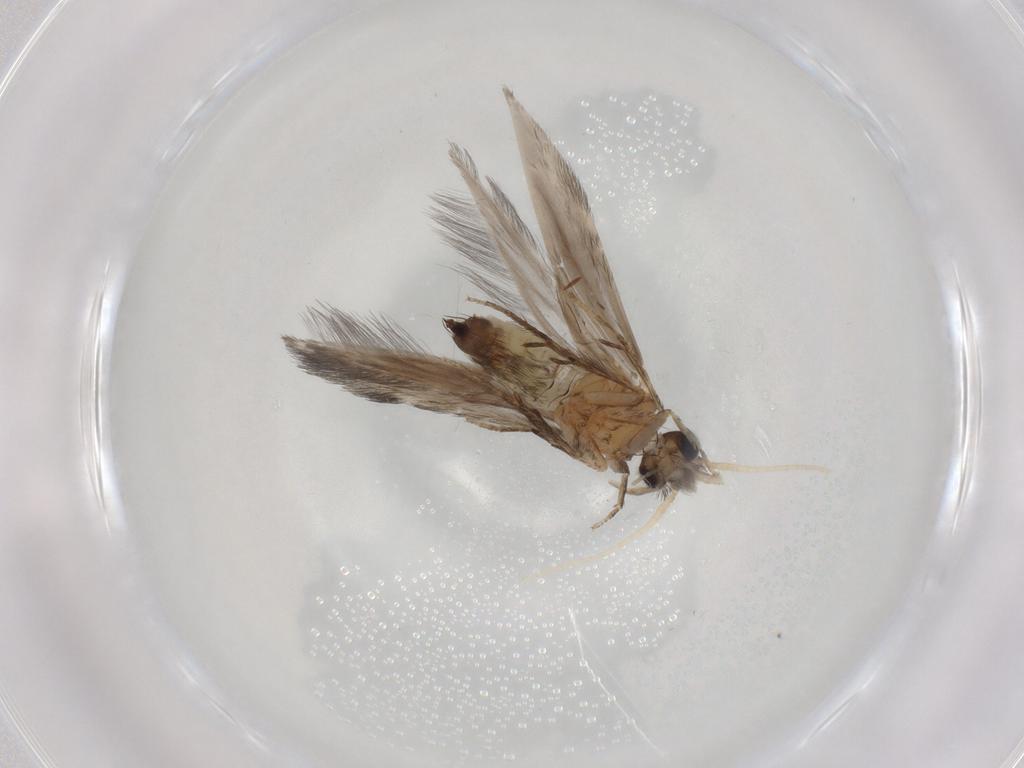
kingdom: Animalia
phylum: Arthropoda
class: Insecta
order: Trichoptera
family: Hydroptilidae
